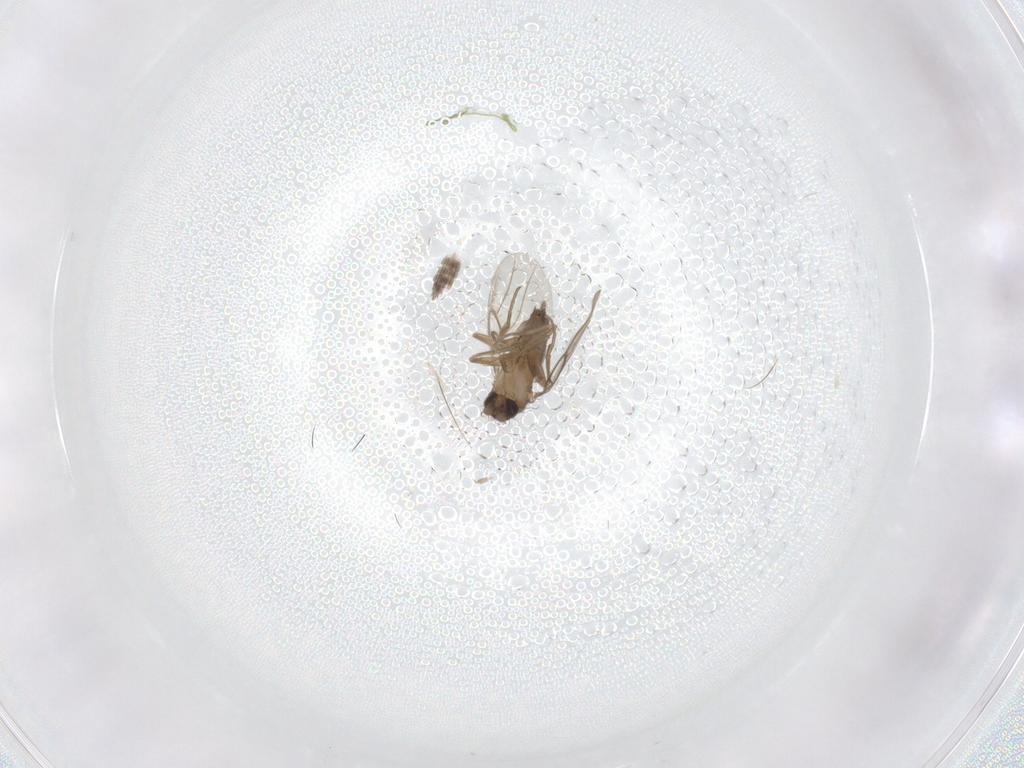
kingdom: Animalia
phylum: Arthropoda
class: Insecta
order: Diptera
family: Phoridae
